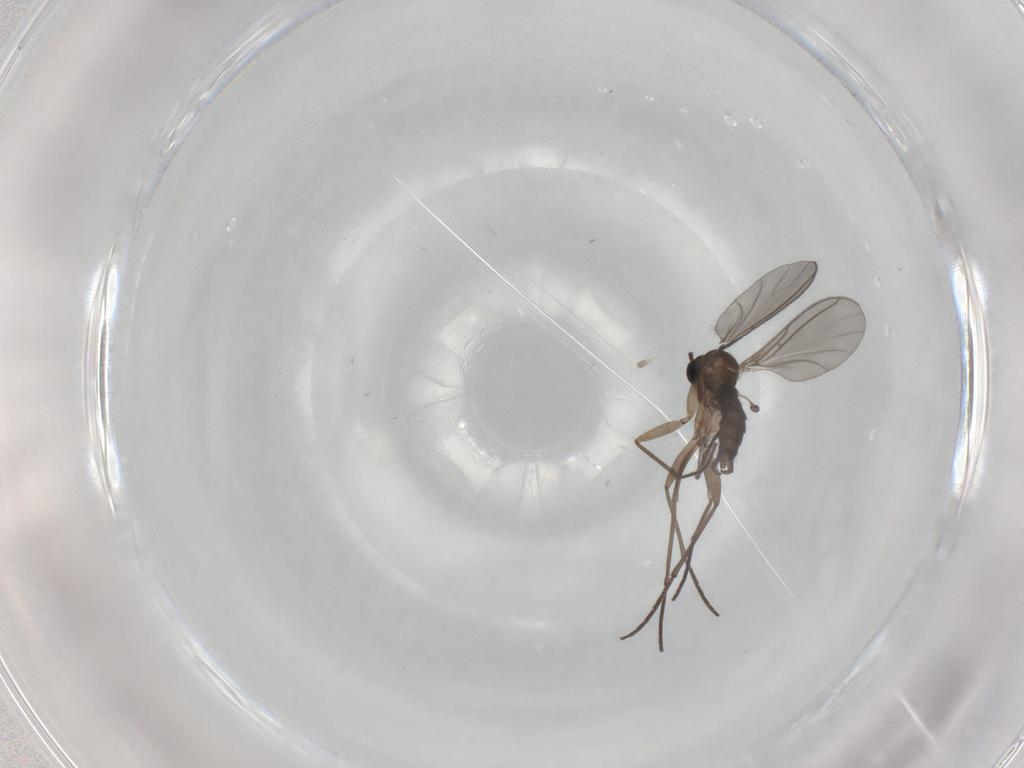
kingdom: Animalia
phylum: Arthropoda
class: Insecta
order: Diptera
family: Sciaridae
